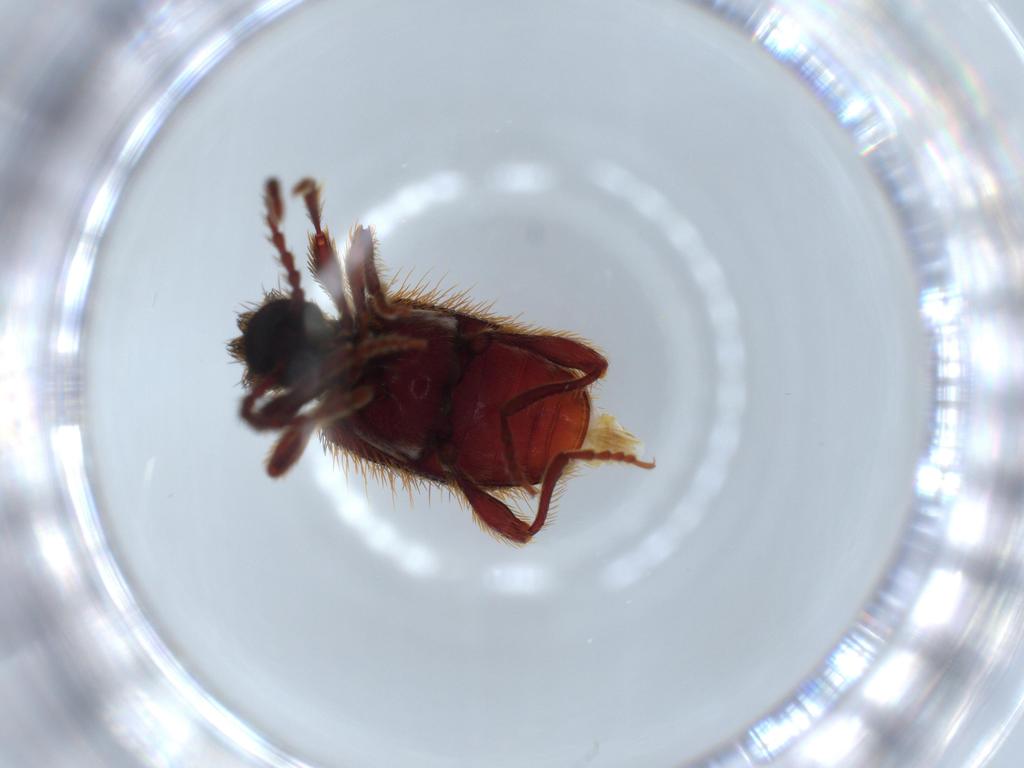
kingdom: Animalia
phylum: Arthropoda
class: Insecta
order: Coleoptera
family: Ptinidae
